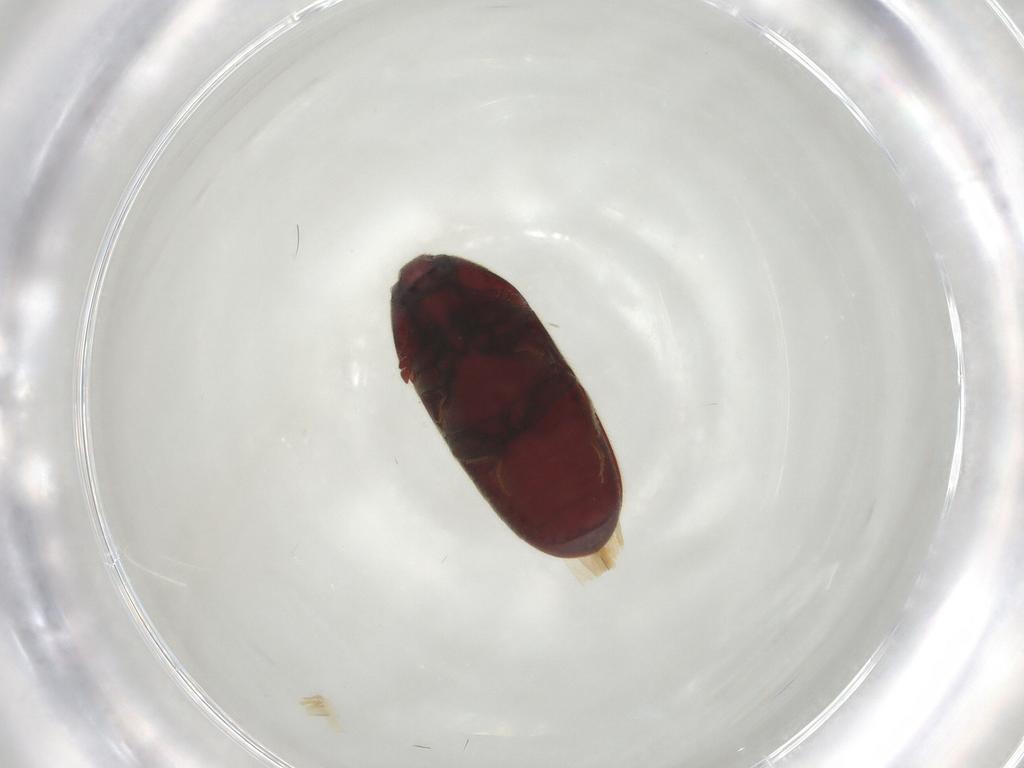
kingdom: Animalia
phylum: Arthropoda
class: Insecta
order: Coleoptera
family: Throscidae
